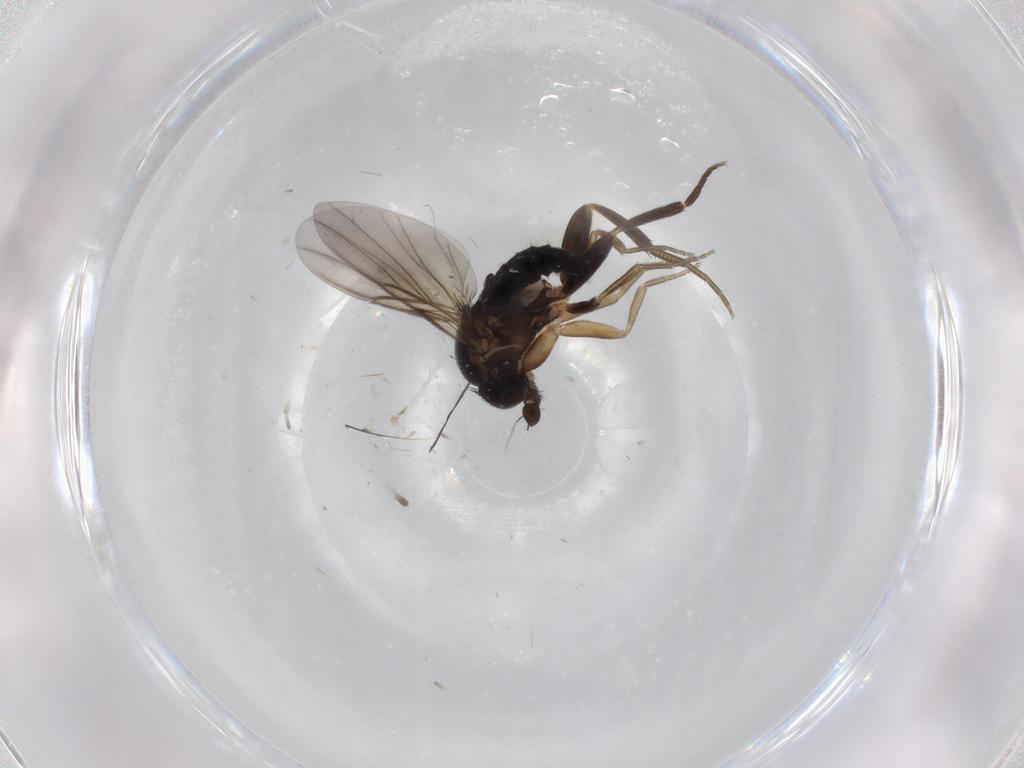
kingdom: Animalia
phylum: Arthropoda
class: Insecta
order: Diptera
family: Phoridae
